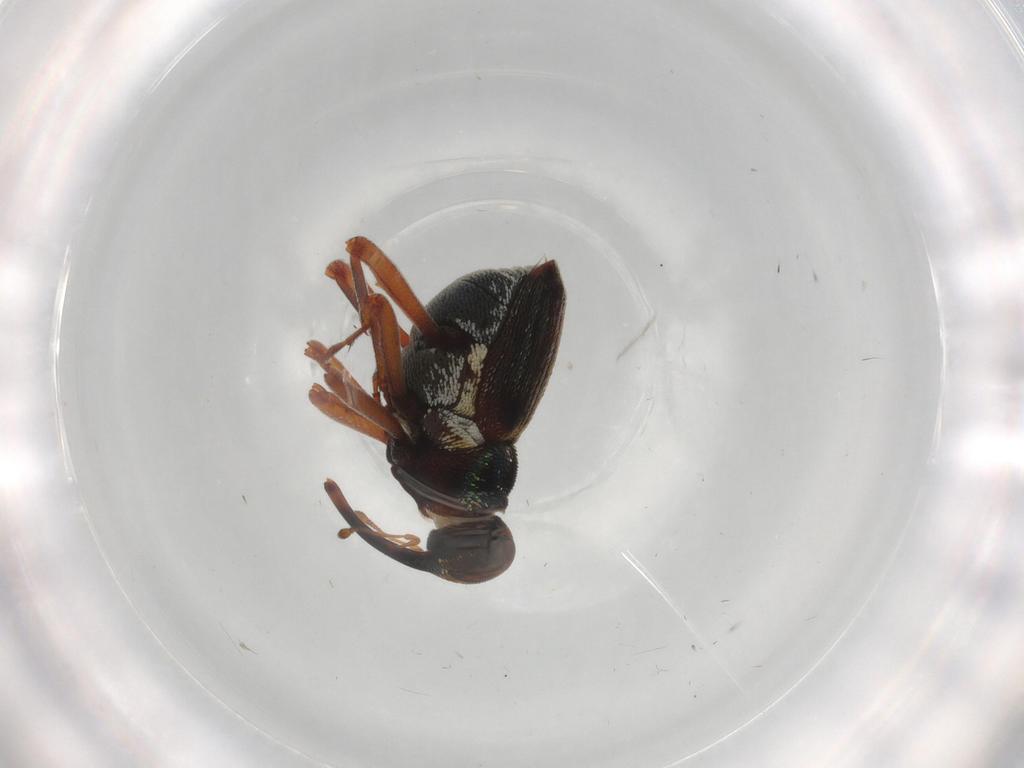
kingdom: Animalia
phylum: Arthropoda
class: Insecta
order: Coleoptera
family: Curculionidae
